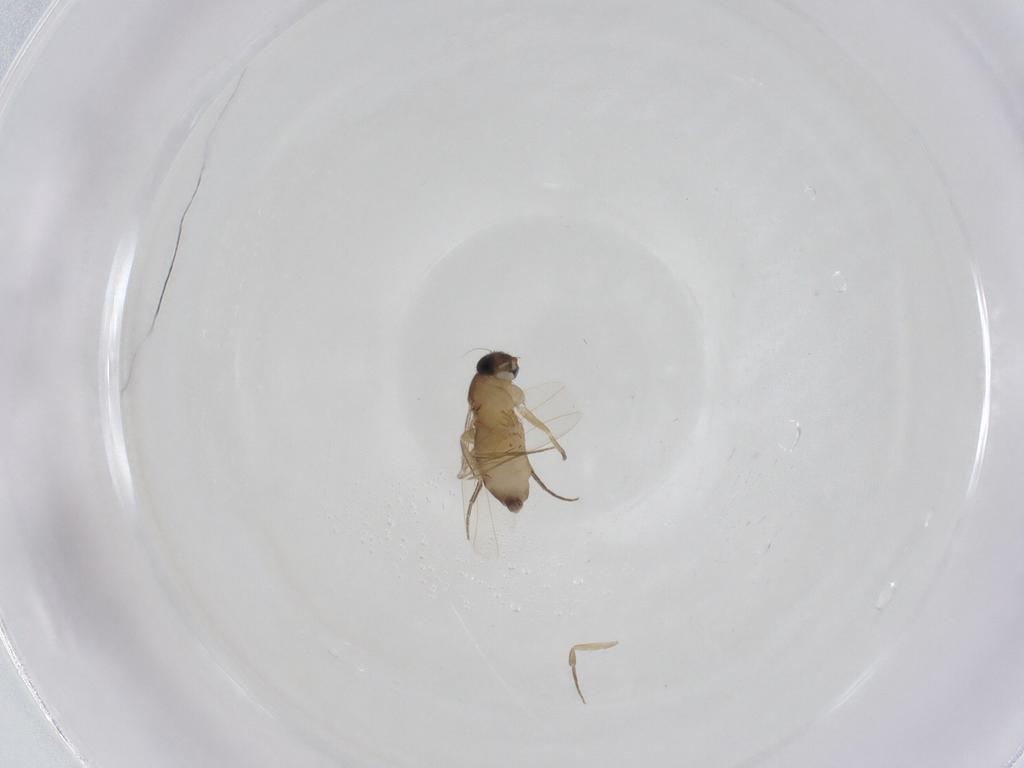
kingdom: Animalia
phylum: Arthropoda
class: Insecta
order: Diptera
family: Phoridae
